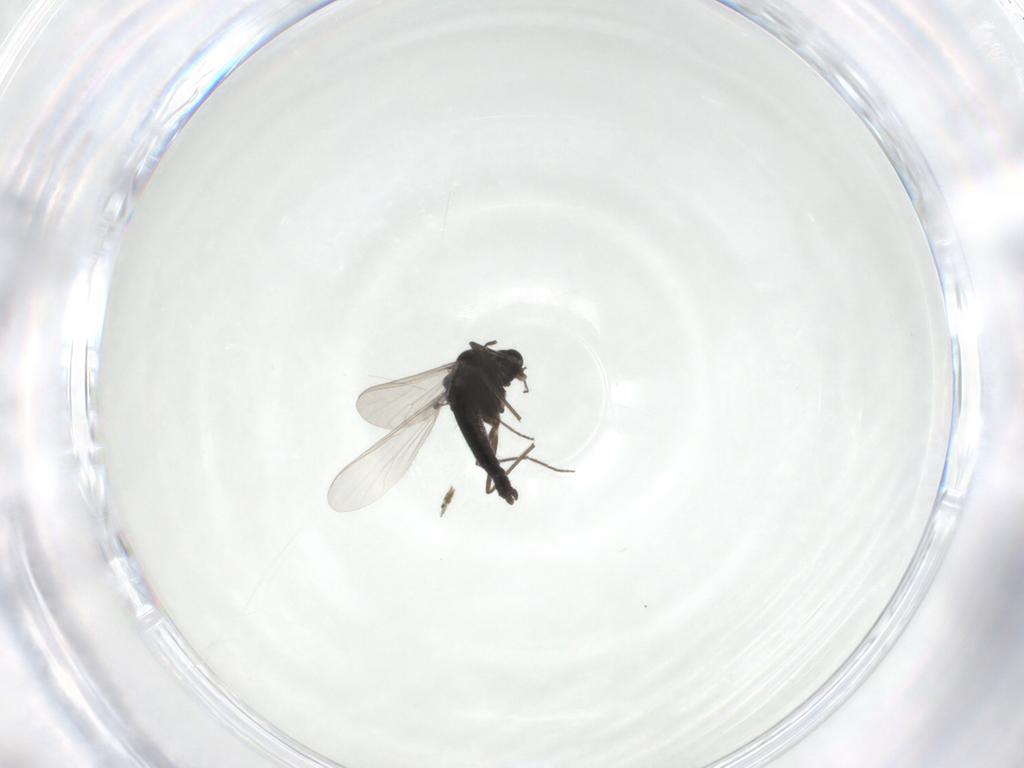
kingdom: Animalia
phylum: Arthropoda
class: Insecta
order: Diptera
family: Chironomidae
